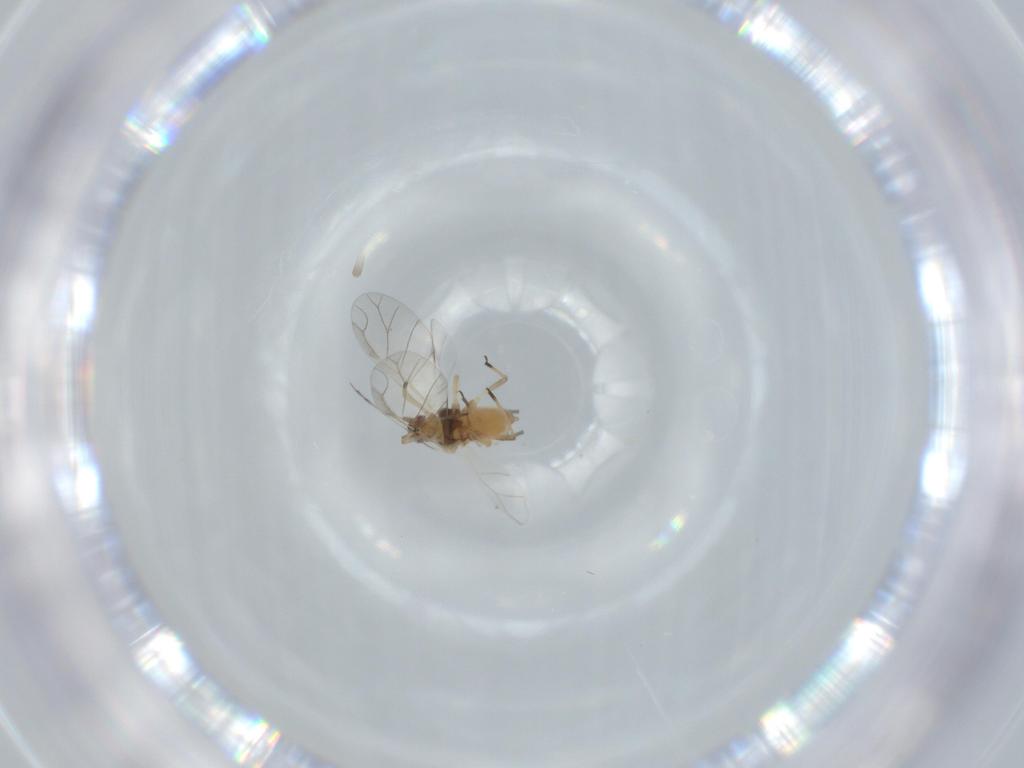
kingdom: Animalia
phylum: Arthropoda
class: Insecta
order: Hemiptera
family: Aphididae
